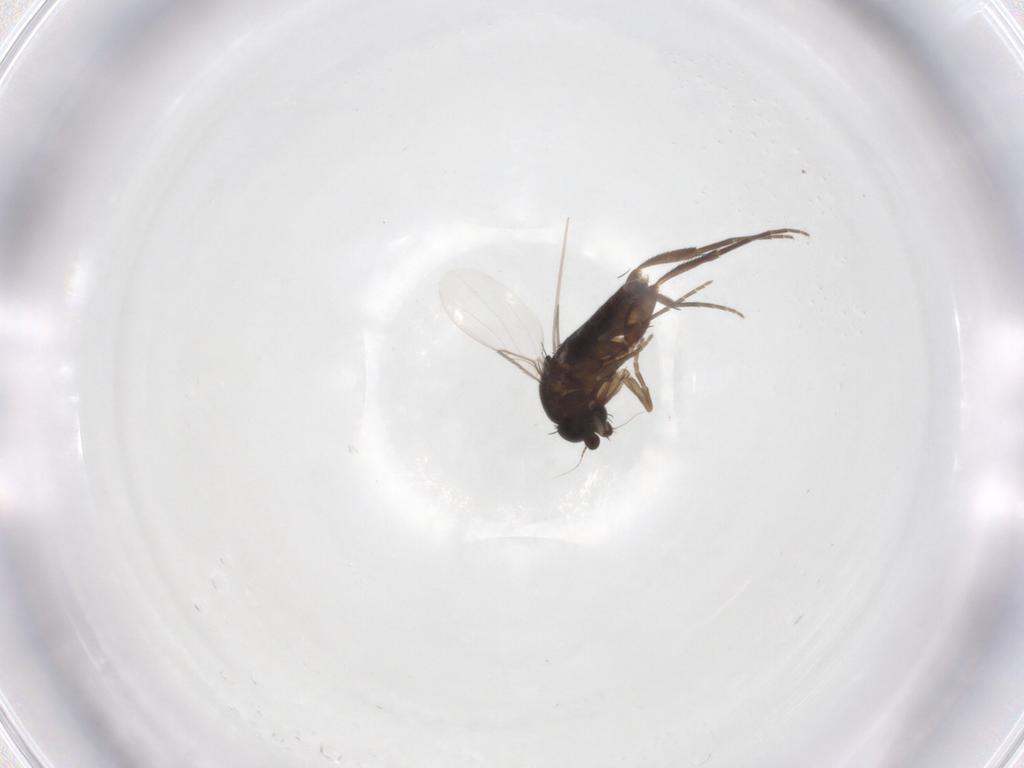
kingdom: Animalia
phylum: Arthropoda
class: Insecta
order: Diptera
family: Phoridae
